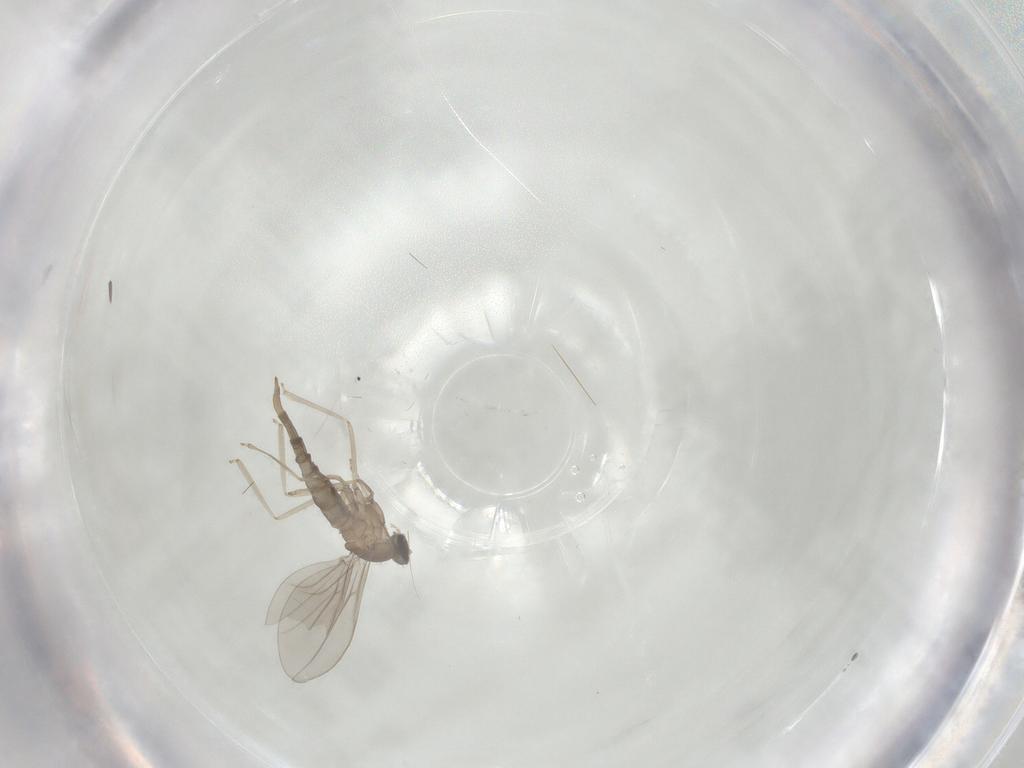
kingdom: Animalia
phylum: Arthropoda
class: Insecta
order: Diptera
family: Cecidomyiidae
